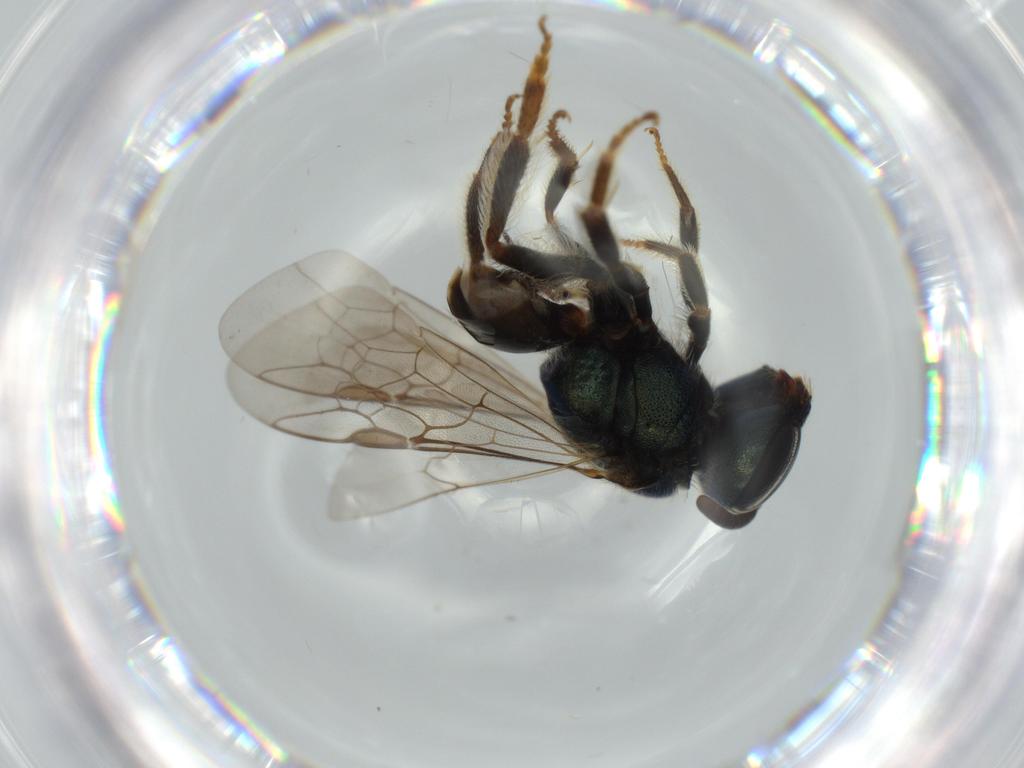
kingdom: Animalia
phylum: Arthropoda
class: Insecta
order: Hymenoptera
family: Halictidae
